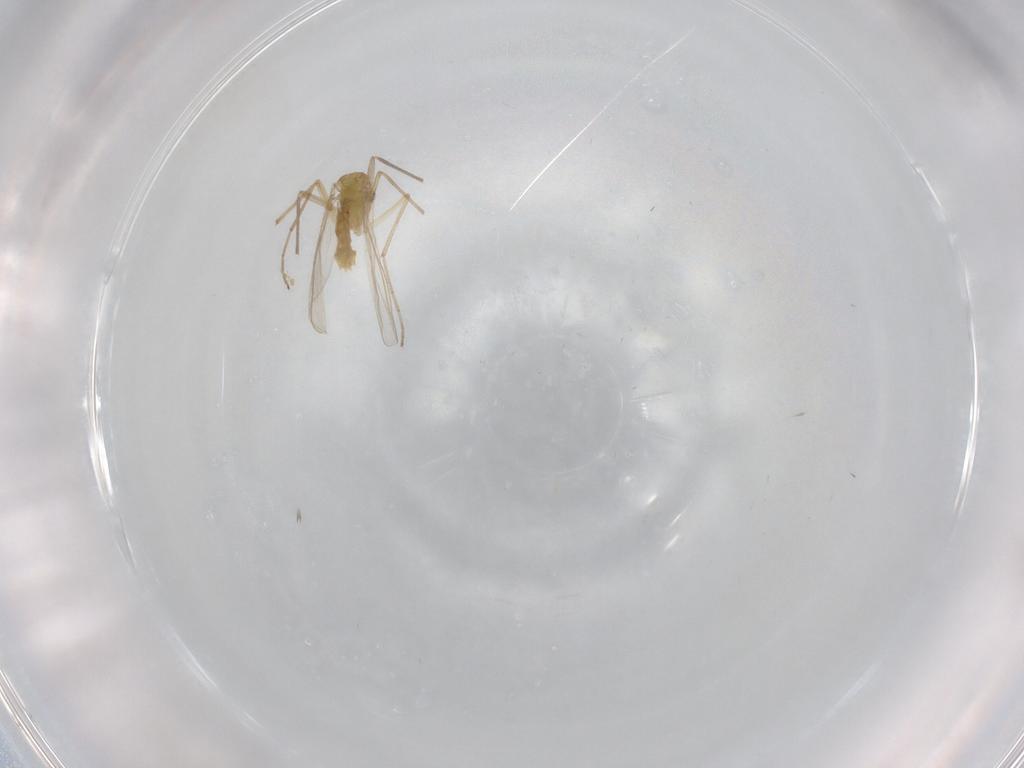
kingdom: Animalia
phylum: Arthropoda
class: Insecta
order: Diptera
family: Chironomidae
